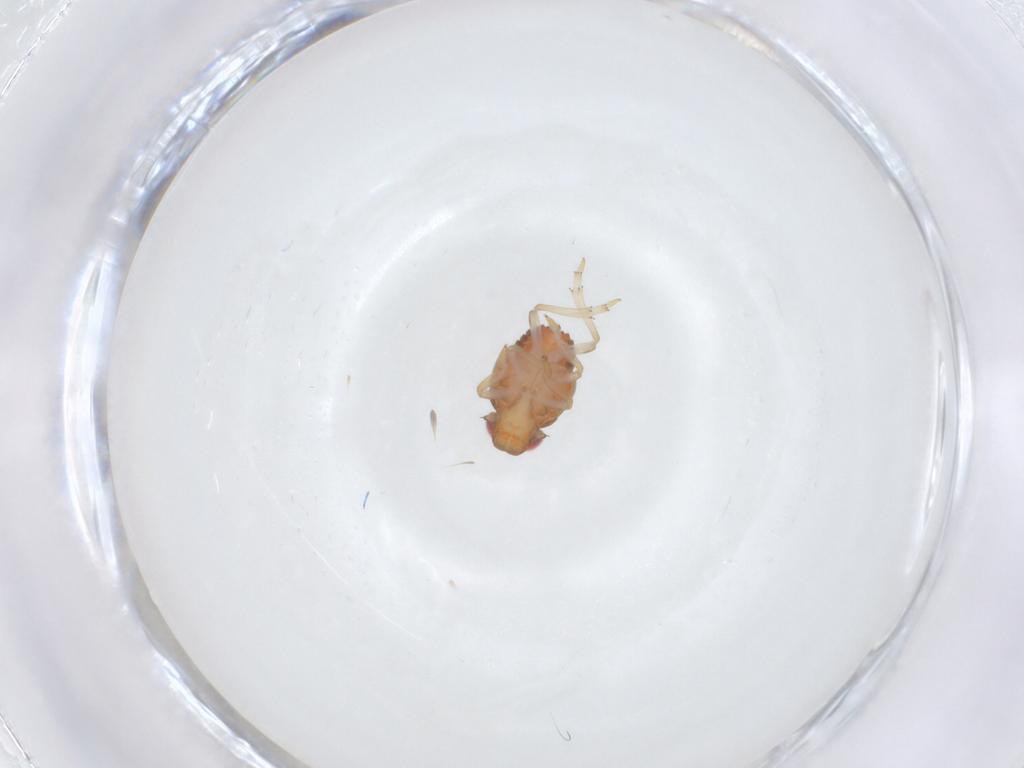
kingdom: Animalia
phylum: Arthropoda
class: Insecta
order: Hemiptera
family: Issidae
